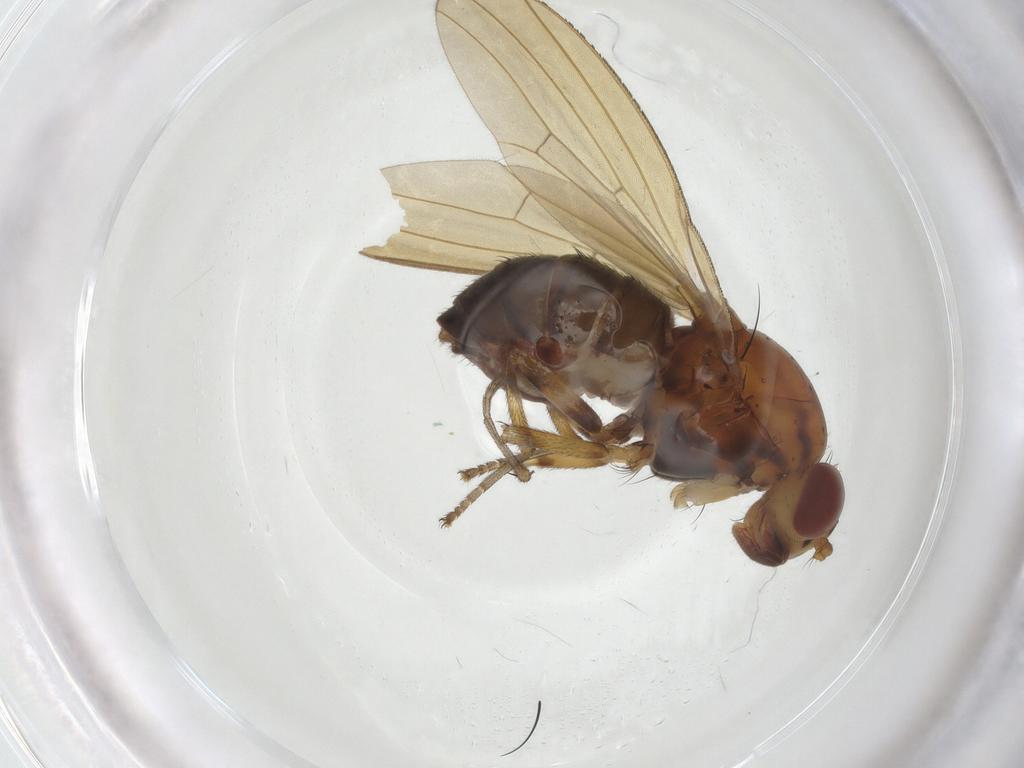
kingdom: Animalia
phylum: Arthropoda
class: Insecta
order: Diptera
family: Lauxaniidae
